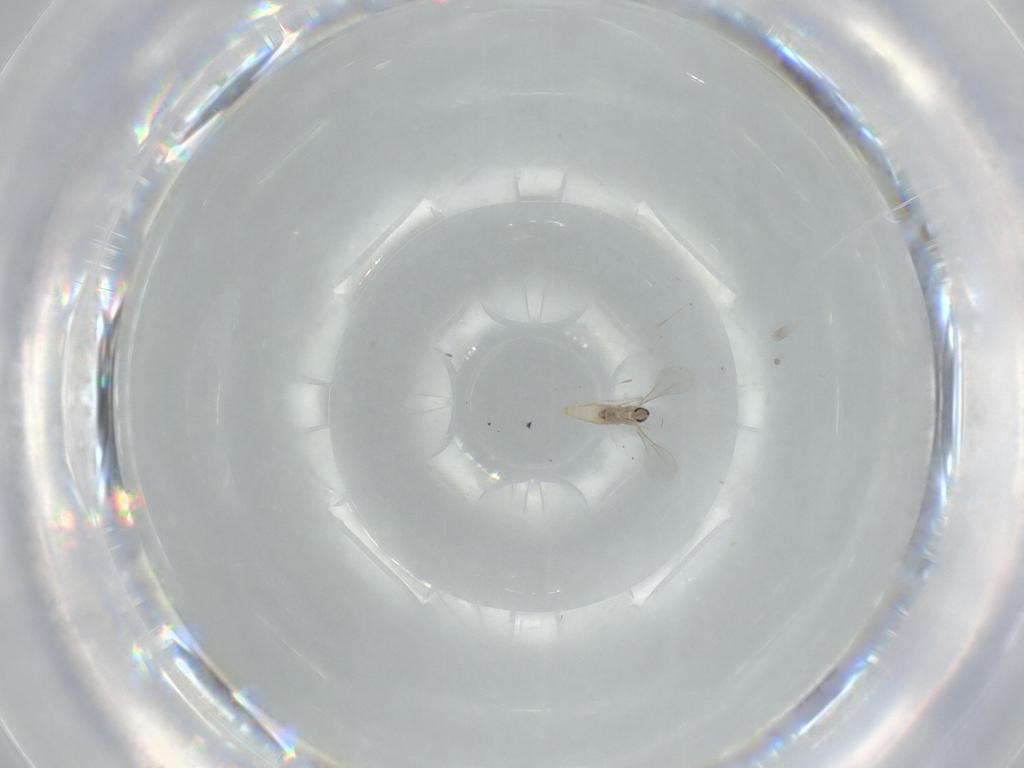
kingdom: Animalia
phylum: Arthropoda
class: Insecta
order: Diptera
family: Cecidomyiidae
